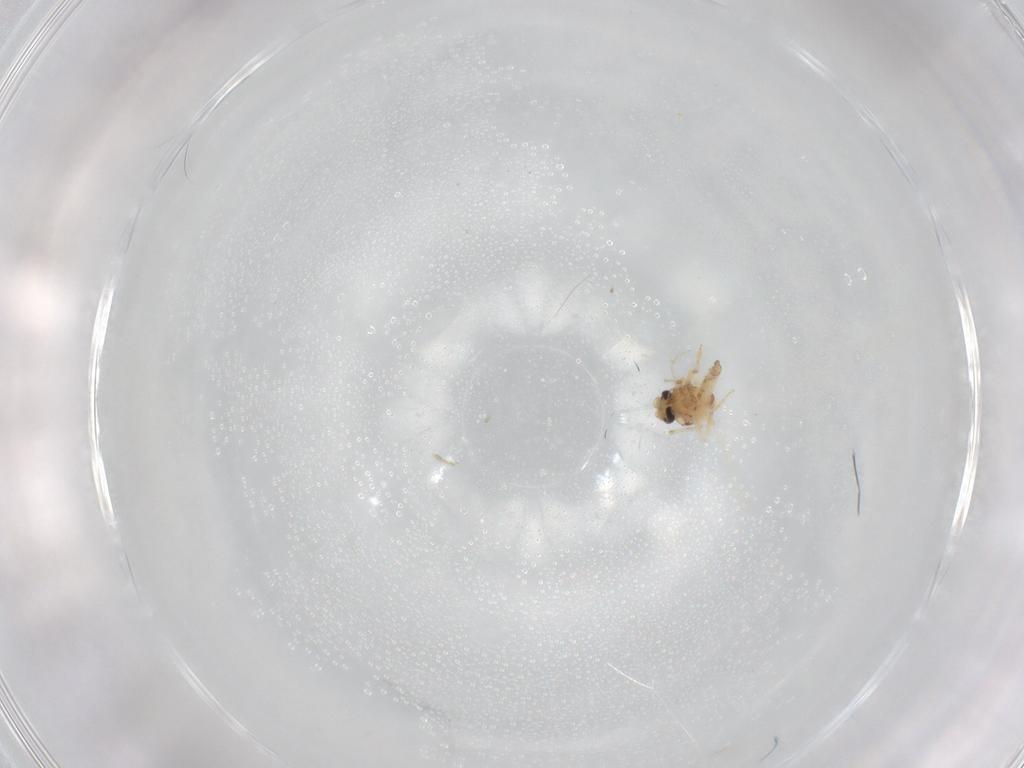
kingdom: Animalia
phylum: Arthropoda
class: Insecta
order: Diptera
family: Ceratopogonidae
